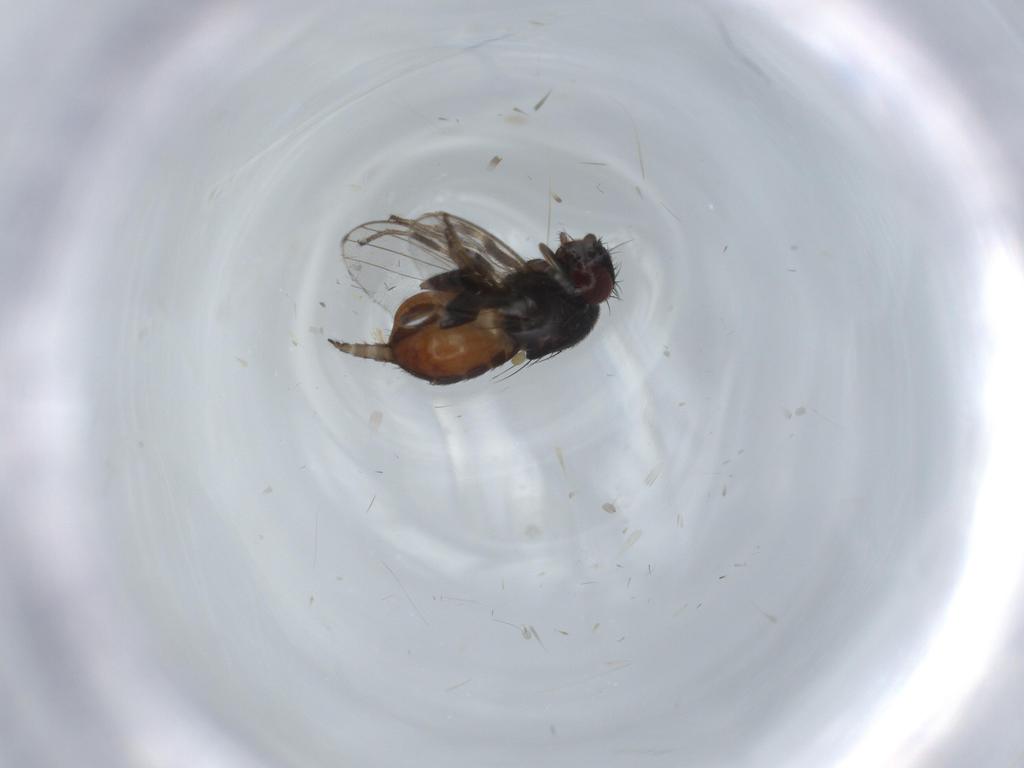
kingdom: Animalia
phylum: Arthropoda
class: Insecta
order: Diptera
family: Milichiidae
